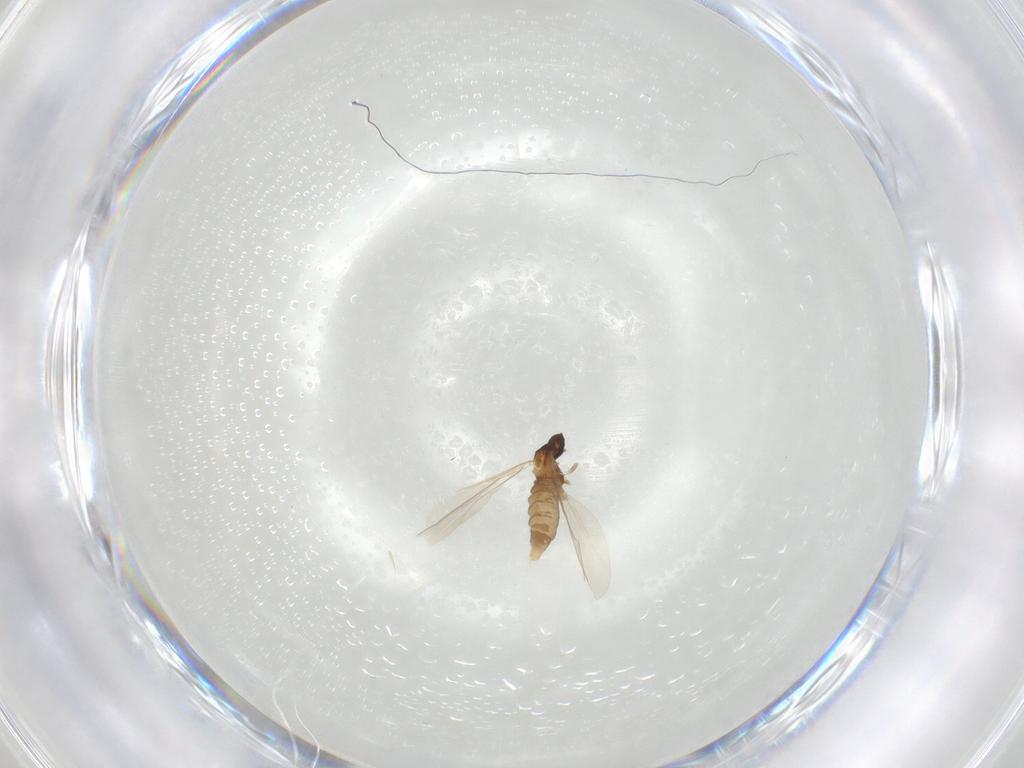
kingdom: Animalia
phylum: Arthropoda
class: Insecta
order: Diptera
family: Cecidomyiidae
